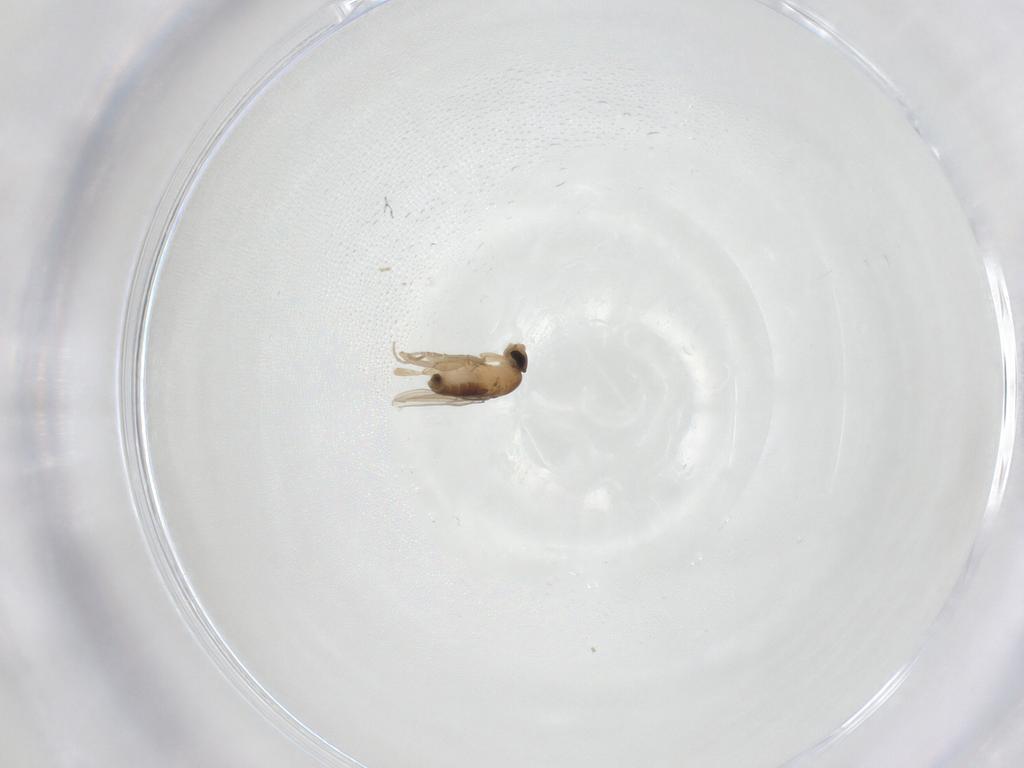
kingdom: Animalia
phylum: Arthropoda
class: Insecta
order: Diptera
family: Phoridae
